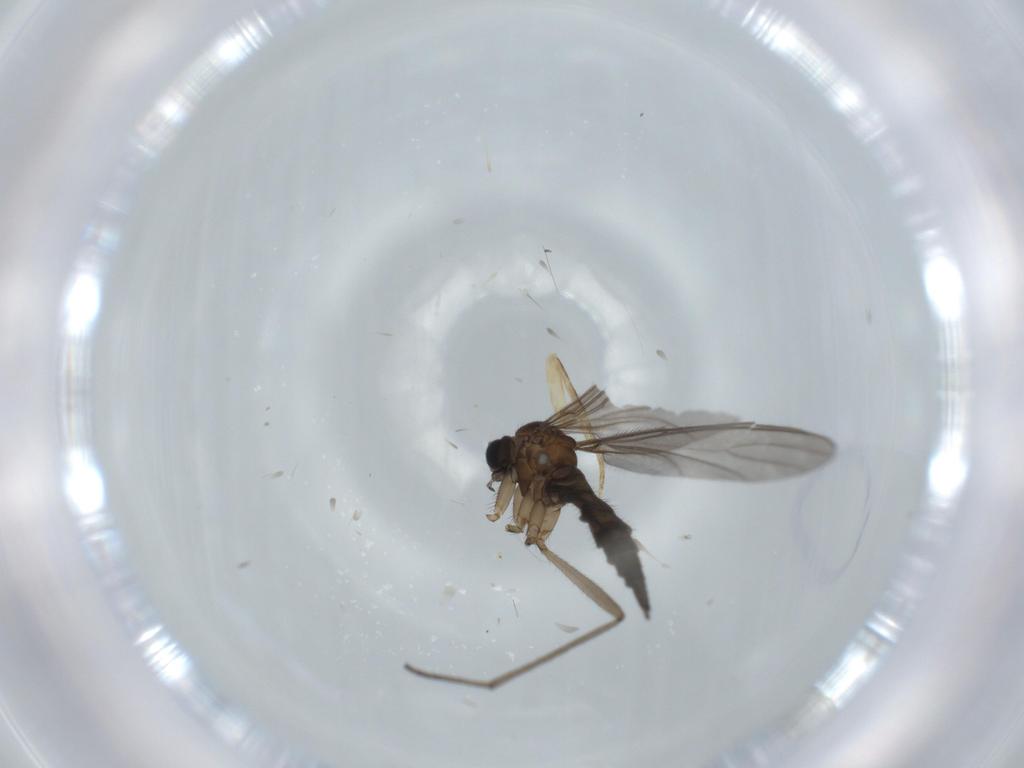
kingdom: Animalia
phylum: Arthropoda
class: Insecta
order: Diptera
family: Sciaridae
